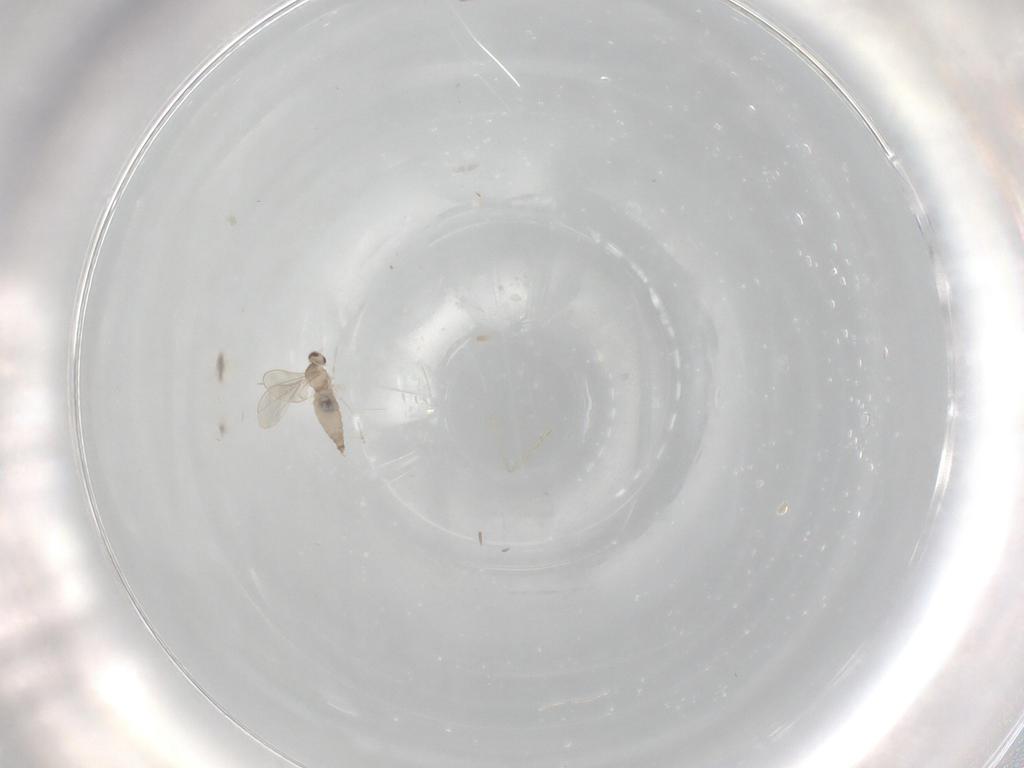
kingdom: Animalia
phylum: Arthropoda
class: Insecta
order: Diptera
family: Cecidomyiidae
